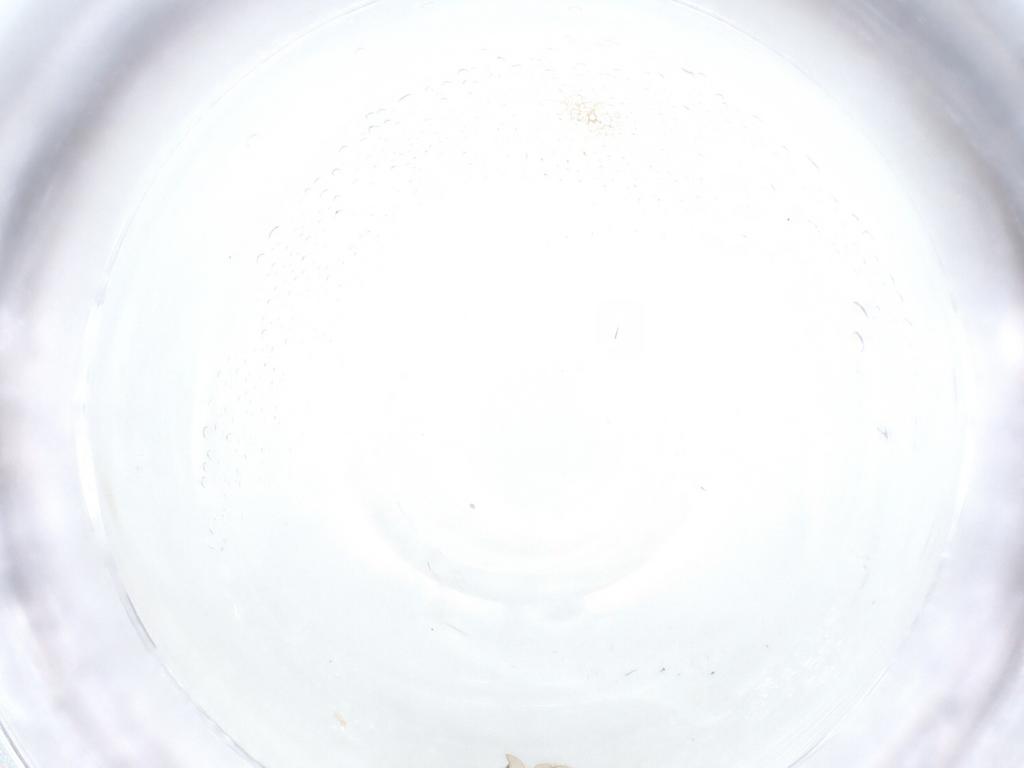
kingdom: Animalia
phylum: Arthropoda
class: Insecta
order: Hymenoptera
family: Scelionidae
